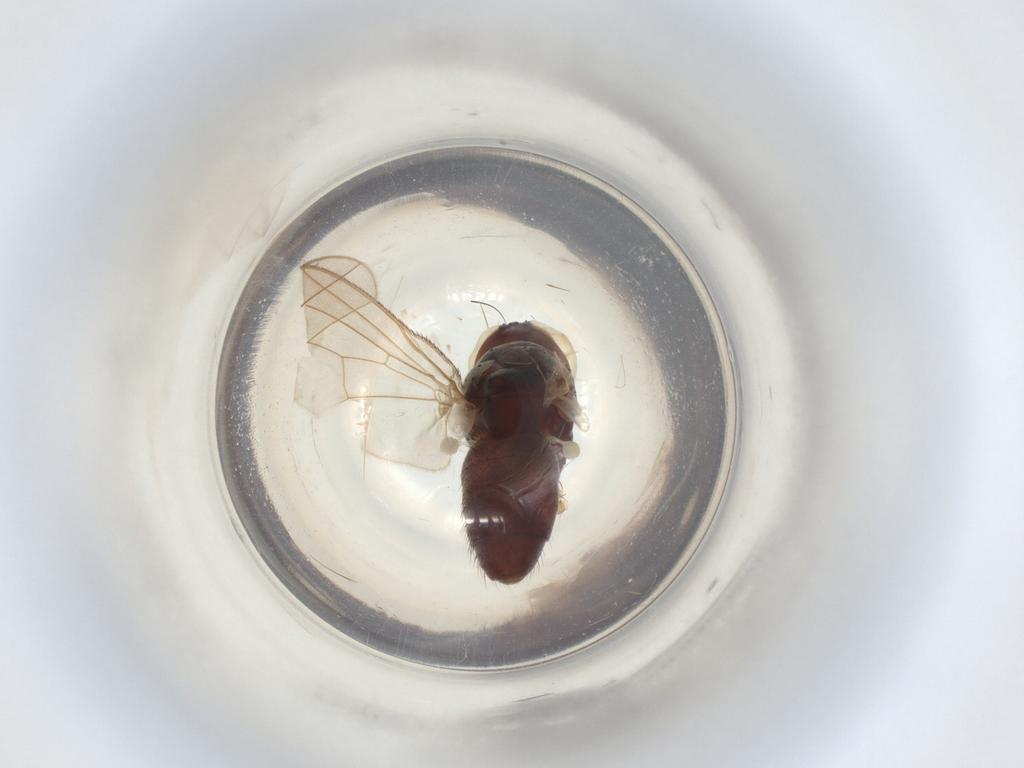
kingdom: Animalia
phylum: Arthropoda
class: Insecta
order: Diptera
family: Muscidae
